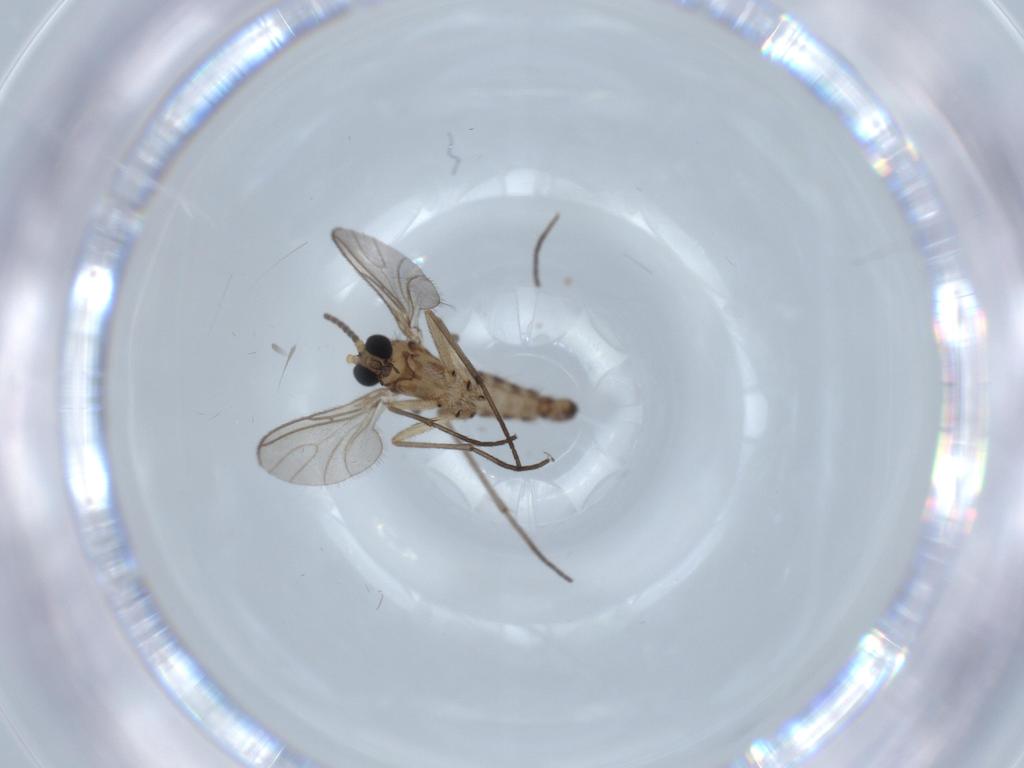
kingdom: Animalia
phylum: Arthropoda
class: Insecta
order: Diptera
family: Sciaridae
